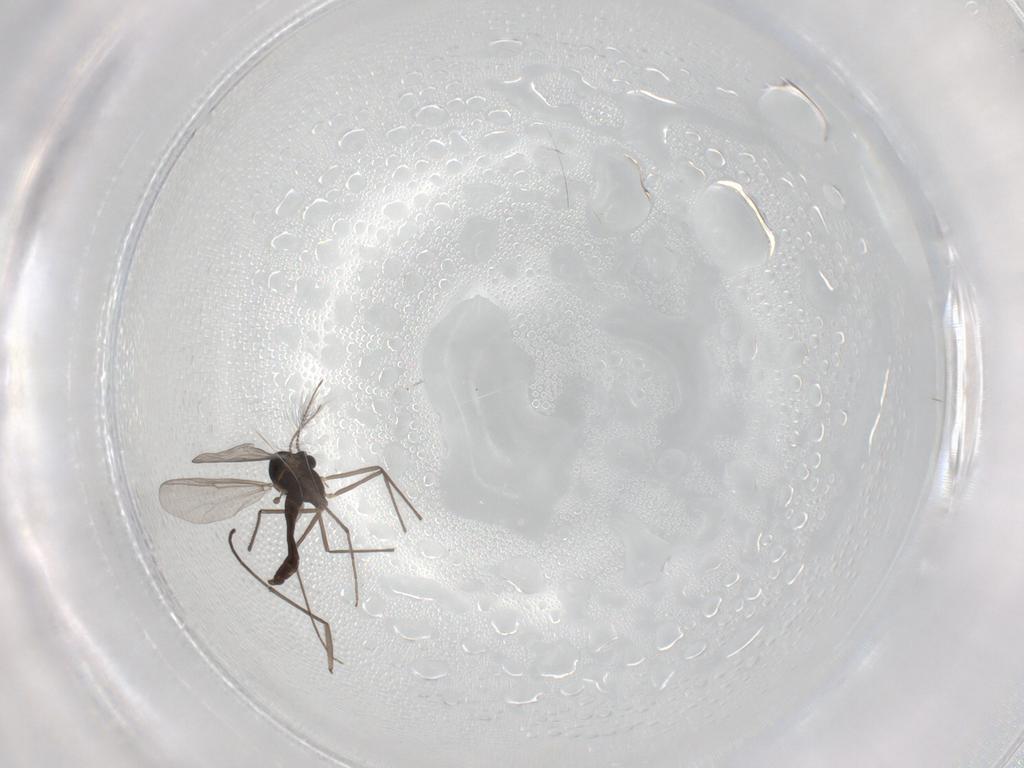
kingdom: Animalia
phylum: Arthropoda
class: Insecta
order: Diptera
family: Chironomidae
